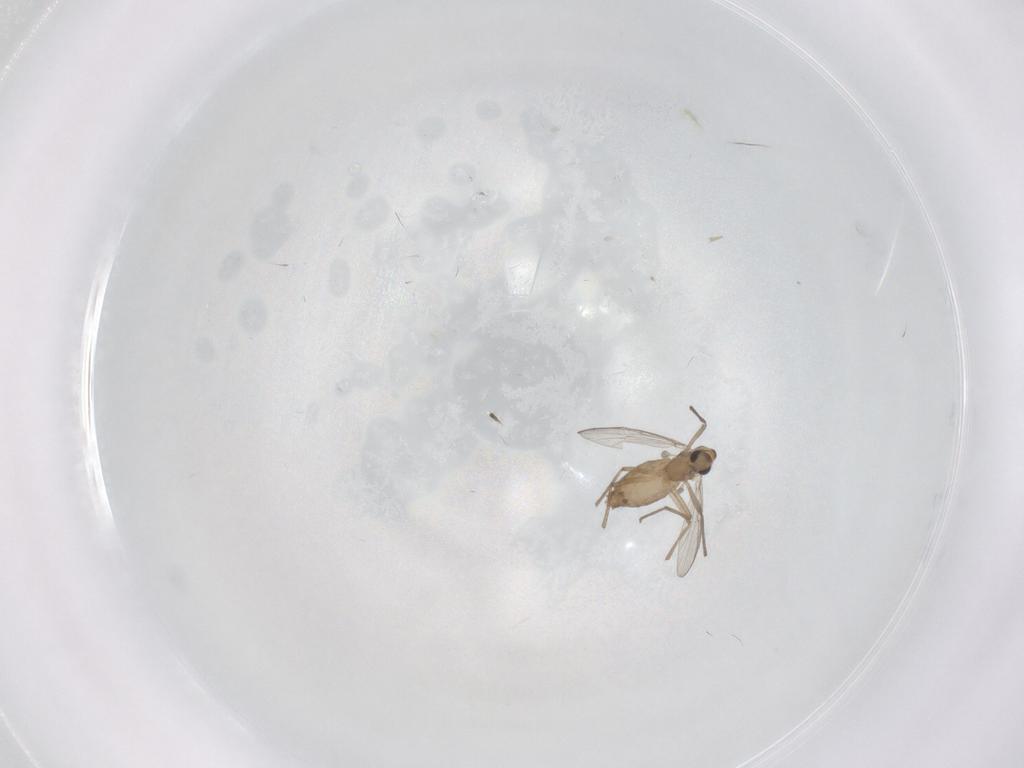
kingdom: Animalia
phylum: Arthropoda
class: Insecta
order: Diptera
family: Chironomidae
